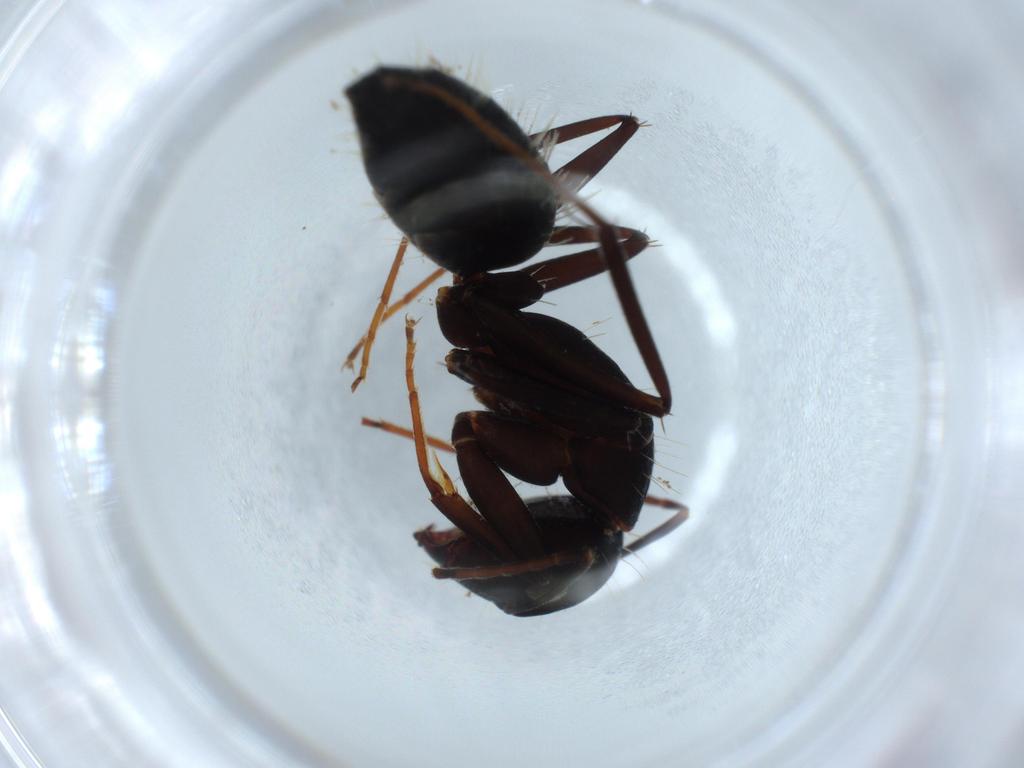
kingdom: Animalia
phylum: Arthropoda
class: Insecta
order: Hymenoptera
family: Formicidae
